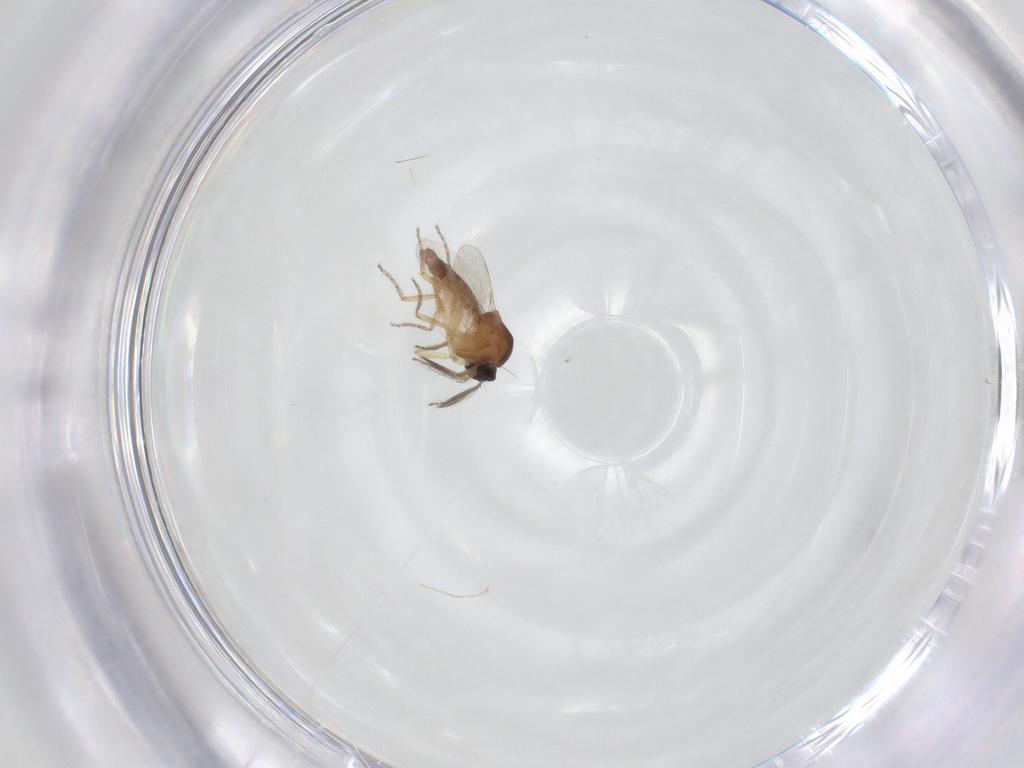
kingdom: Animalia
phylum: Arthropoda
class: Insecta
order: Diptera
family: Ceratopogonidae
